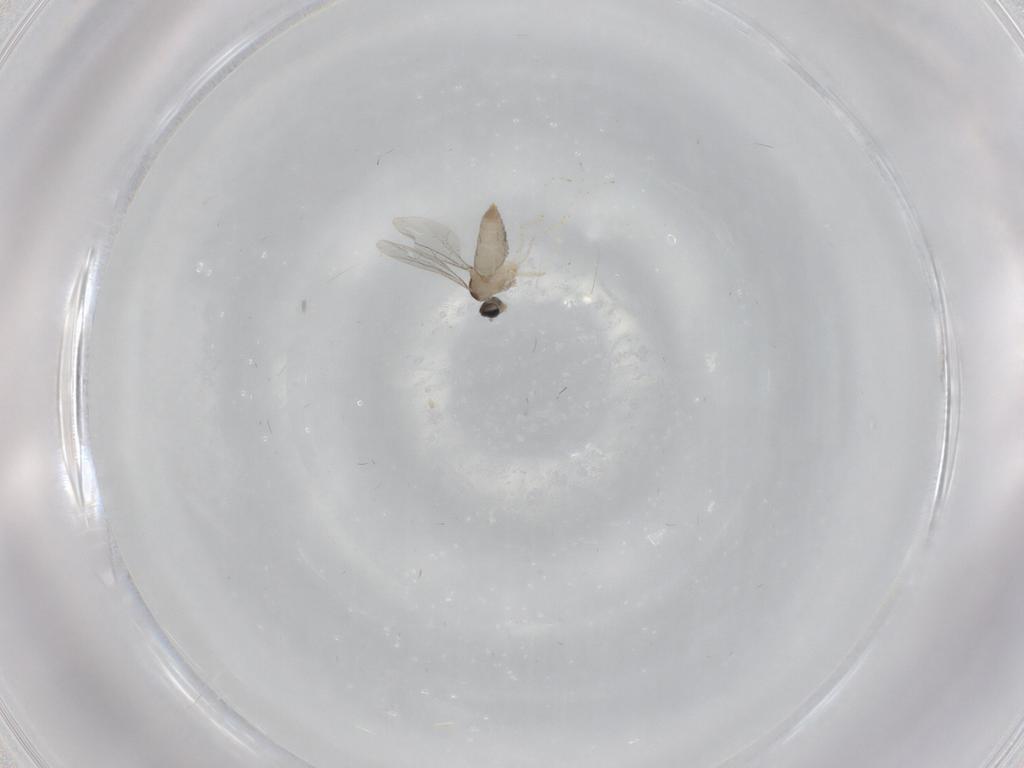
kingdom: Animalia
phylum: Arthropoda
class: Insecta
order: Diptera
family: Cecidomyiidae
